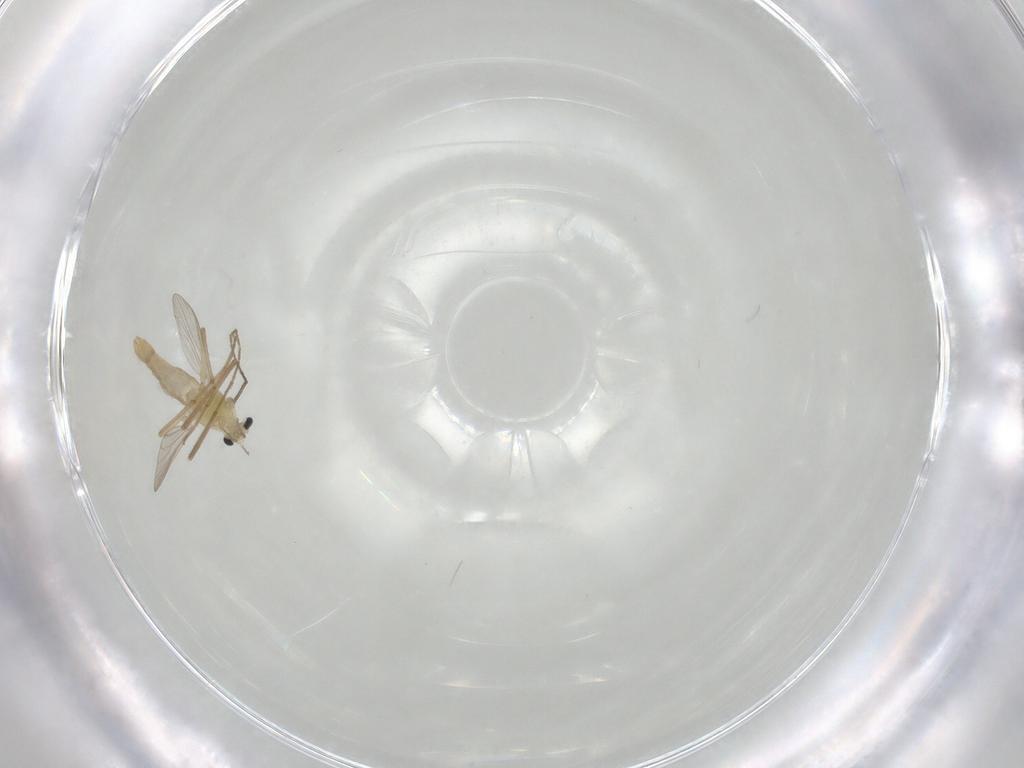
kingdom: Animalia
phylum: Arthropoda
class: Insecta
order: Diptera
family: Chironomidae
